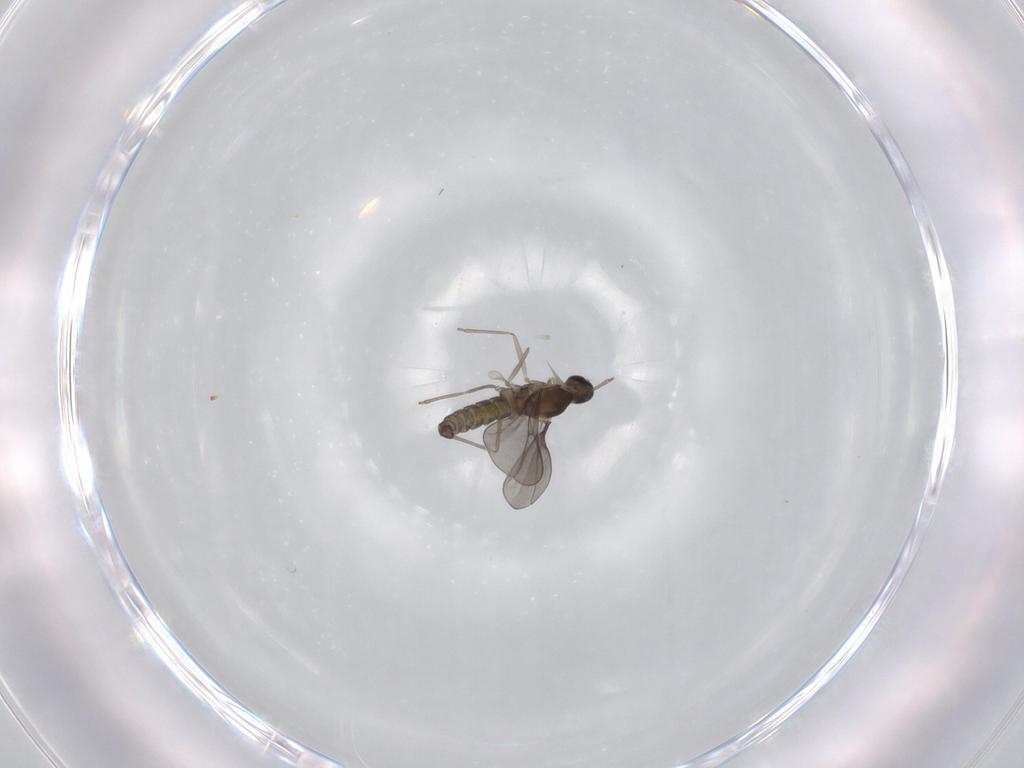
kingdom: Animalia
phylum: Arthropoda
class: Insecta
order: Diptera
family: Cecidomyiidae
